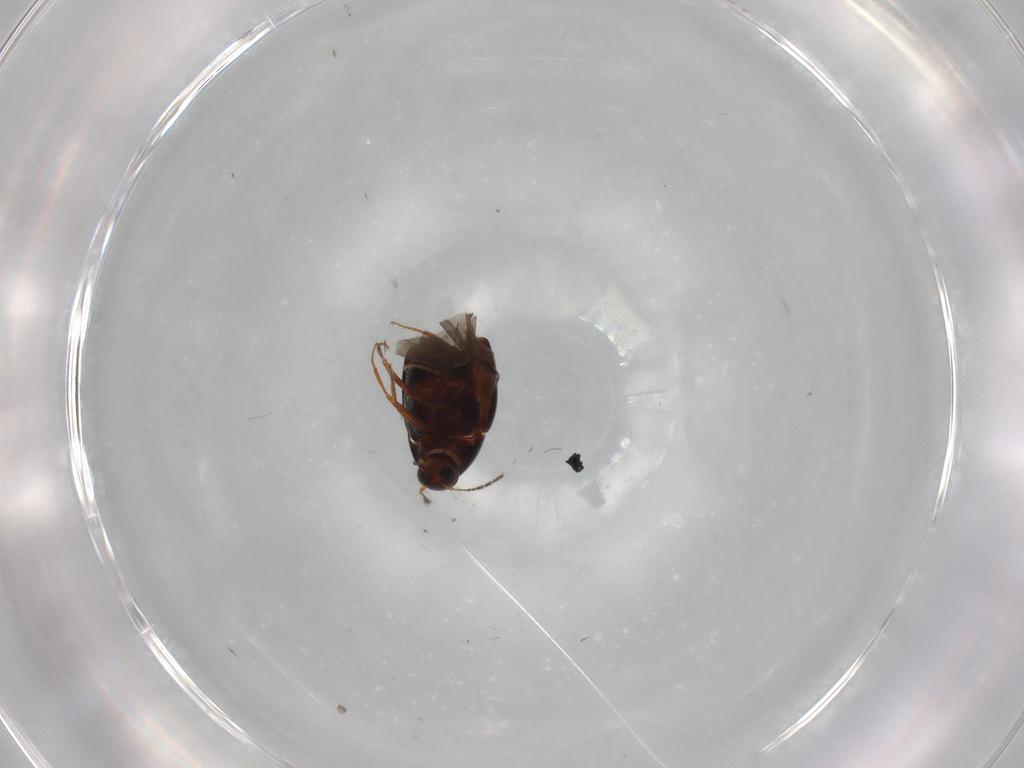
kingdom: Animalia
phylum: Arthropoda
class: Insecta
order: Coleoptera
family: Staphylinidae
